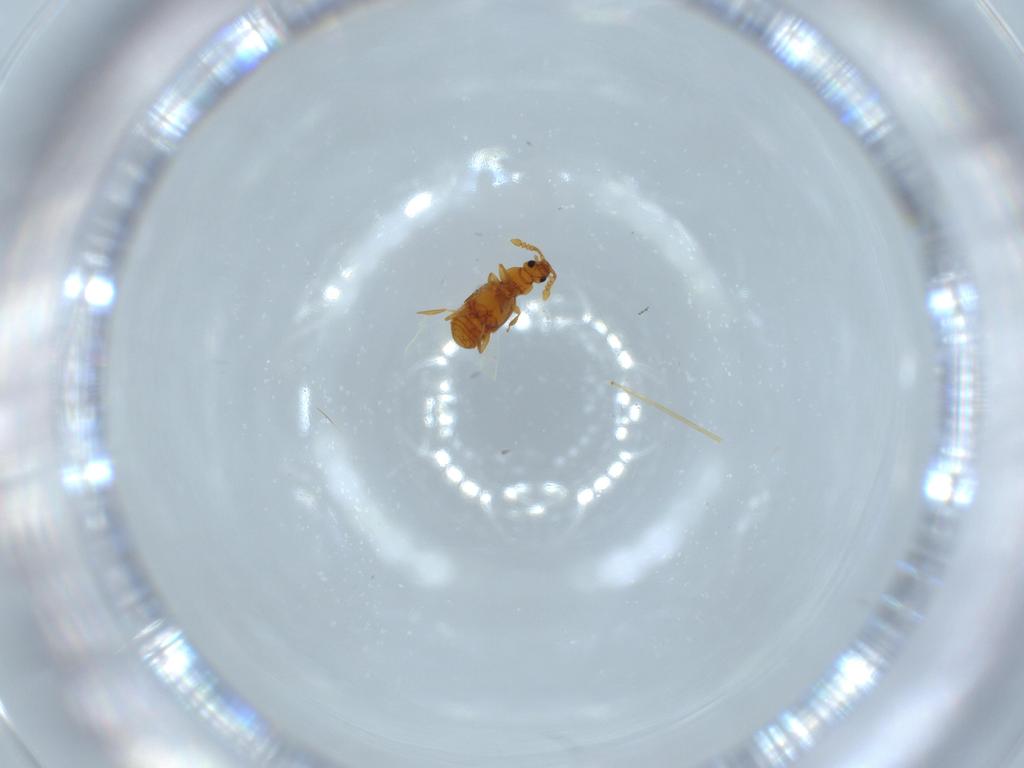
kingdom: Animalia
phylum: Arthropoda
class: Insecta
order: Coleoptera
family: Staphylinidae
